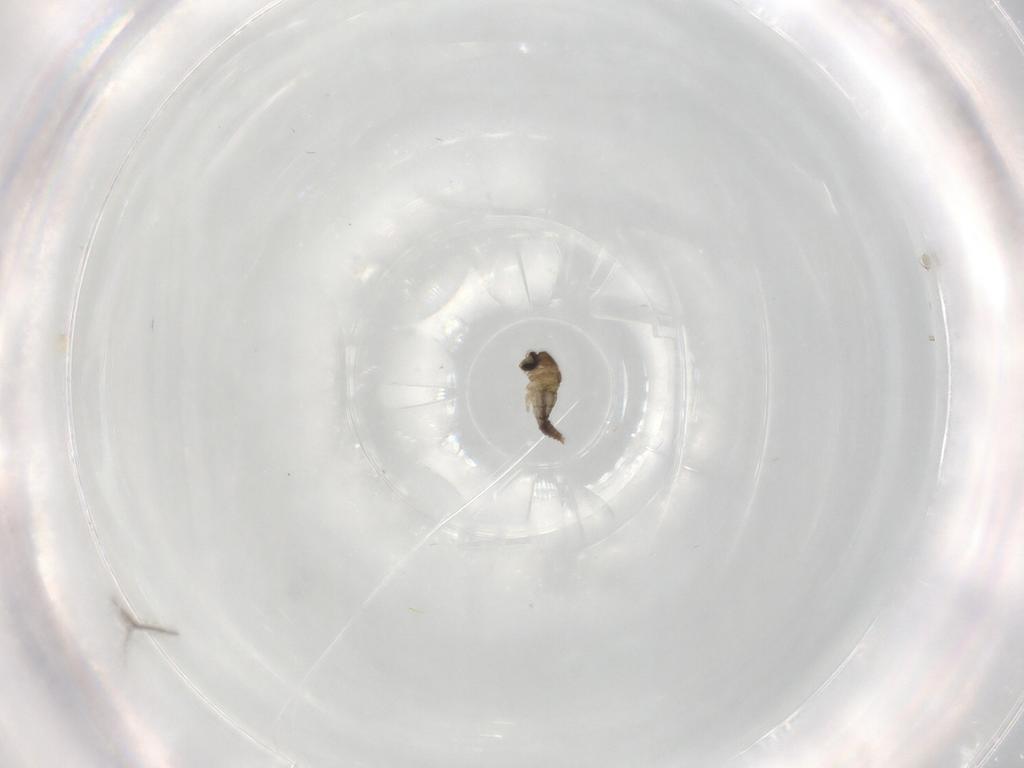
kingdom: Animalia
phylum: Arthropoda
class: Insecta
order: Diptera
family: Cecidomyiidae
